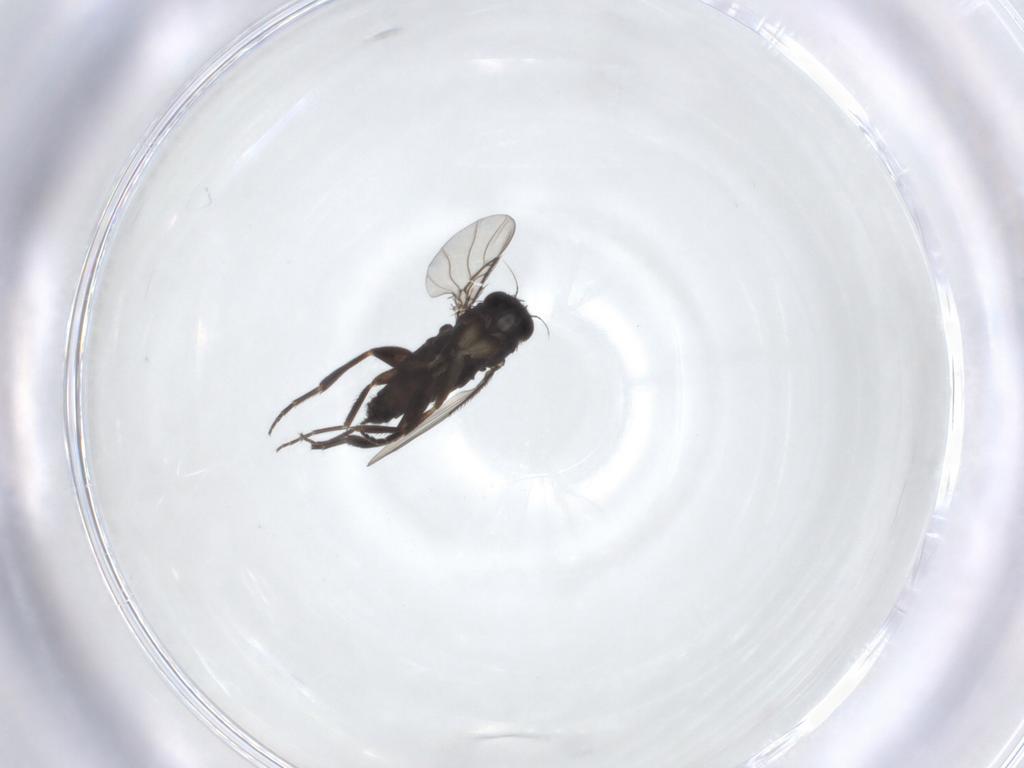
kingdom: Animalia
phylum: Arthropoda
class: Insecta
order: Diptera
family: Phoridae
